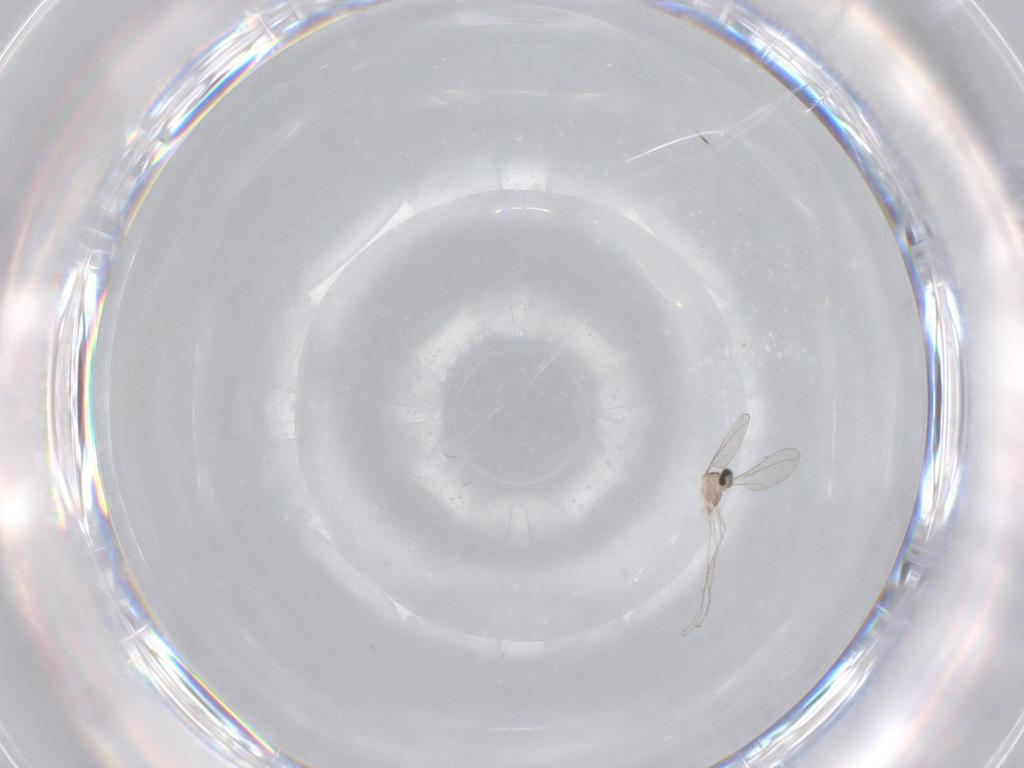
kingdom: Animalia
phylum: Arthropoda
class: Insecta
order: Diptera
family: Cecidomyiidae
